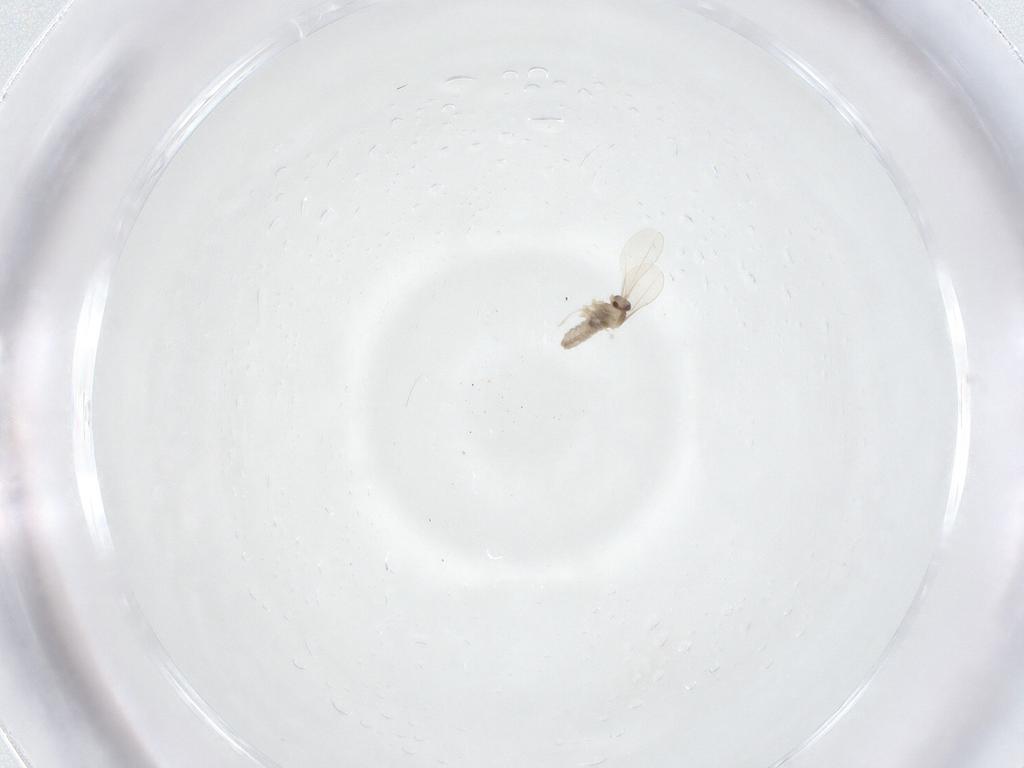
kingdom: Animalia
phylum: Arthropoda
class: Insecta
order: Diptera
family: Cecidomyiidae
